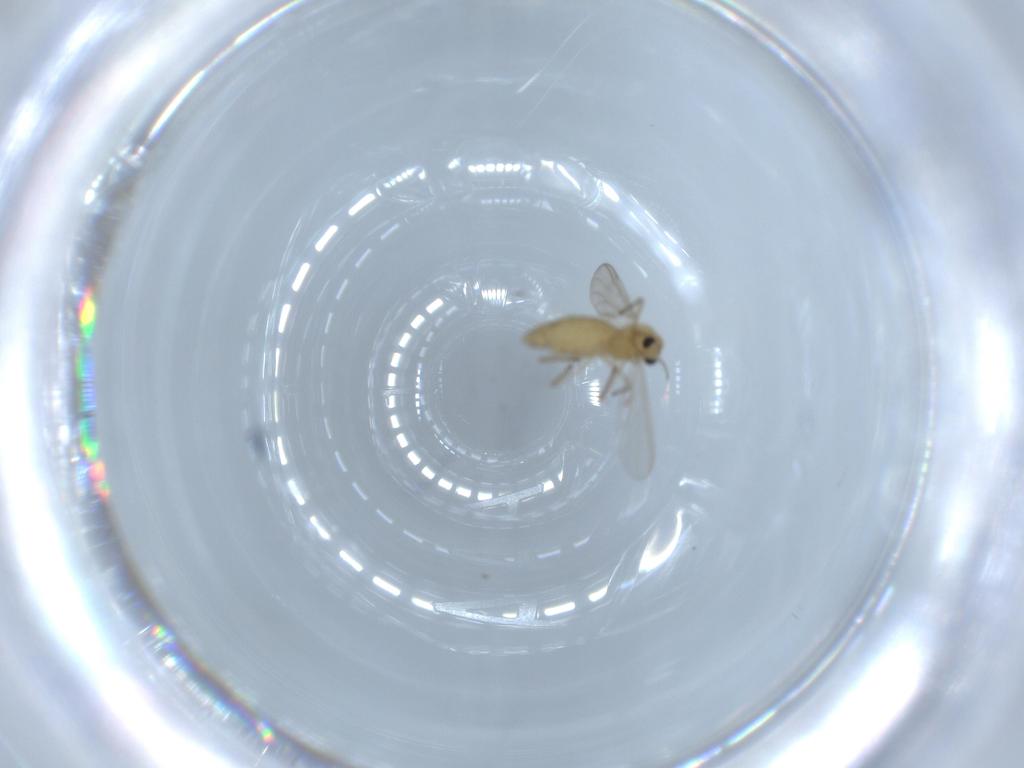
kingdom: Animalia
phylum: Arthropoda
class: Insecta
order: Diptera
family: Chironomidae
